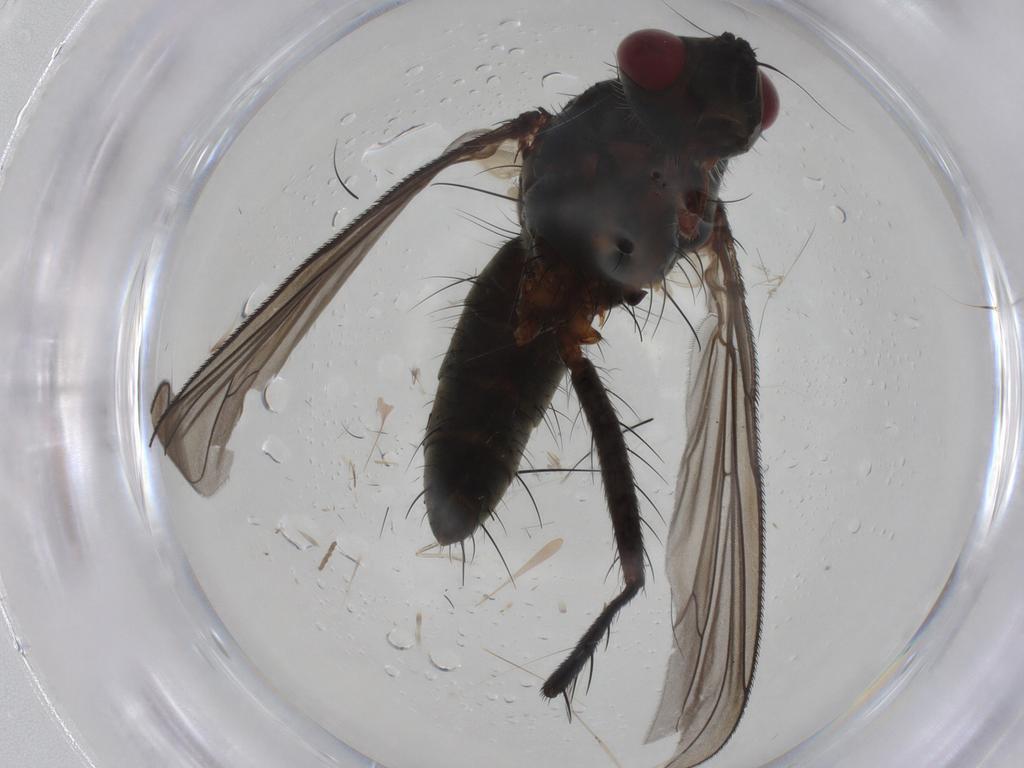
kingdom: Animalia
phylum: Arthropoda
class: Insecta
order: Diptera
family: Tachinidae
